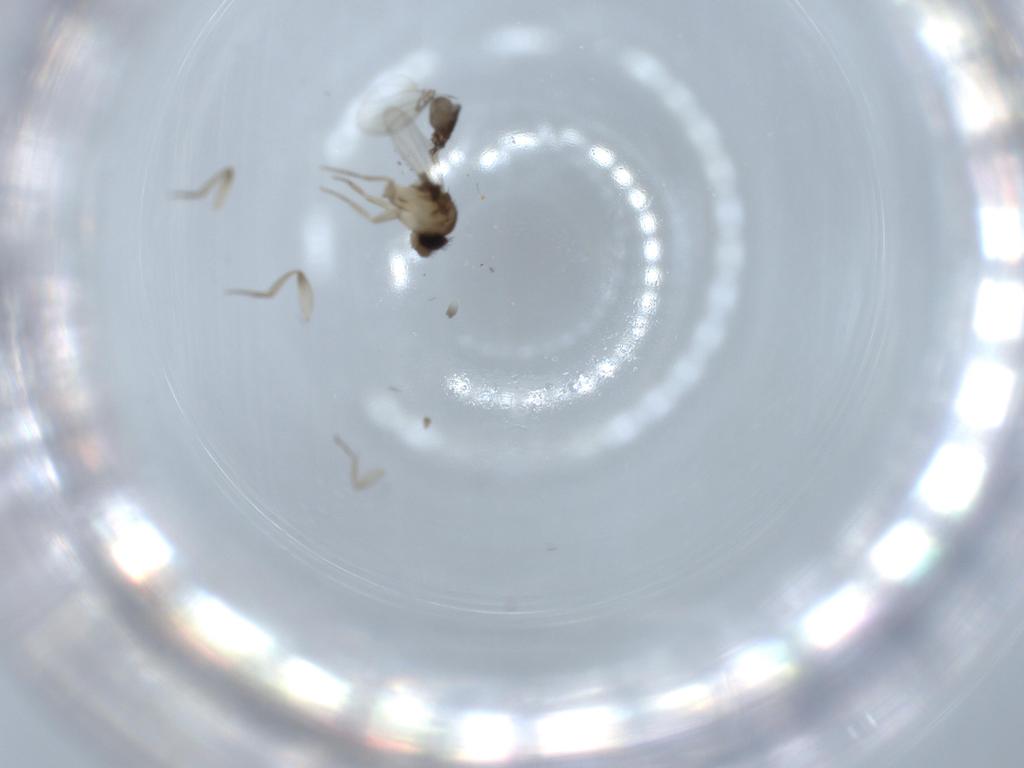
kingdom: Animalia
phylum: Arthropoda
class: Insecta
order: Diptera
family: Phoridae
